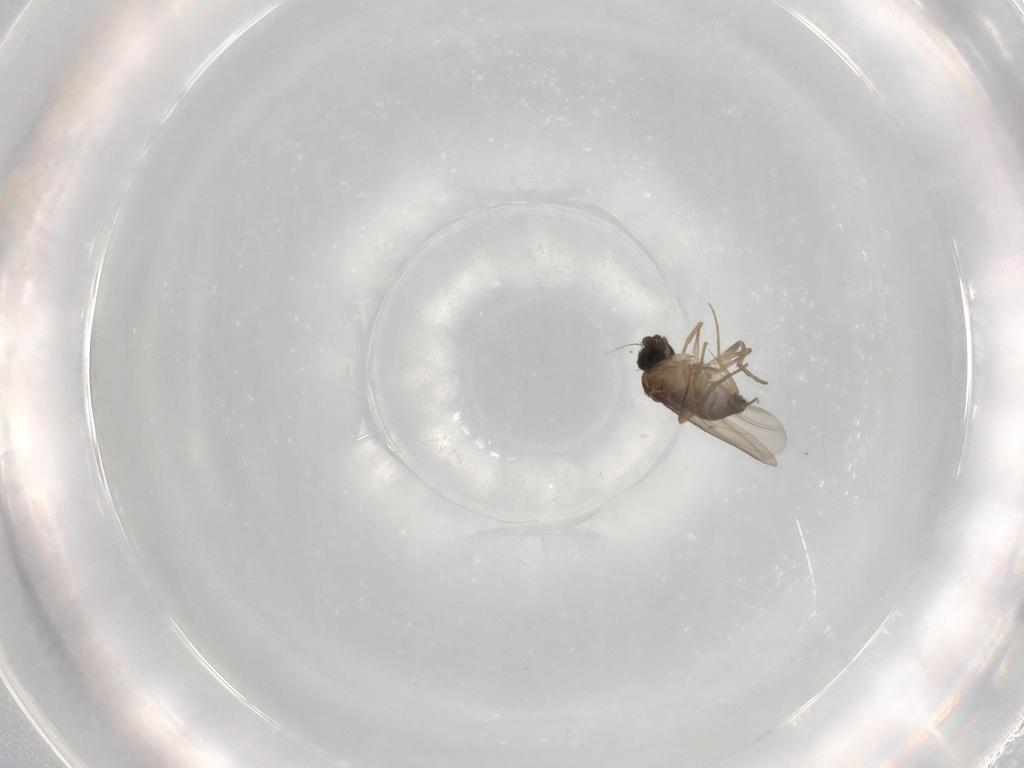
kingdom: Animalia
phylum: Arthropoda
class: Insecta
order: Diptera
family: Phoridae
